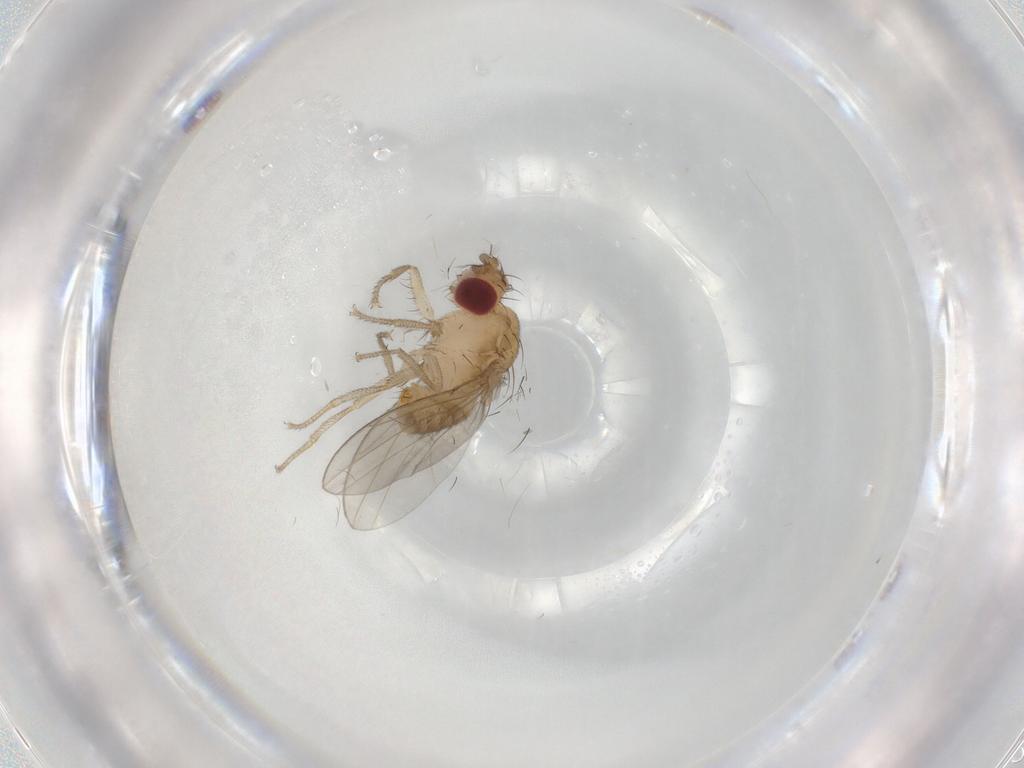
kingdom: Animalia
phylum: Arthropoda
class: Insecta
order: Diptera
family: Drosophilidae
